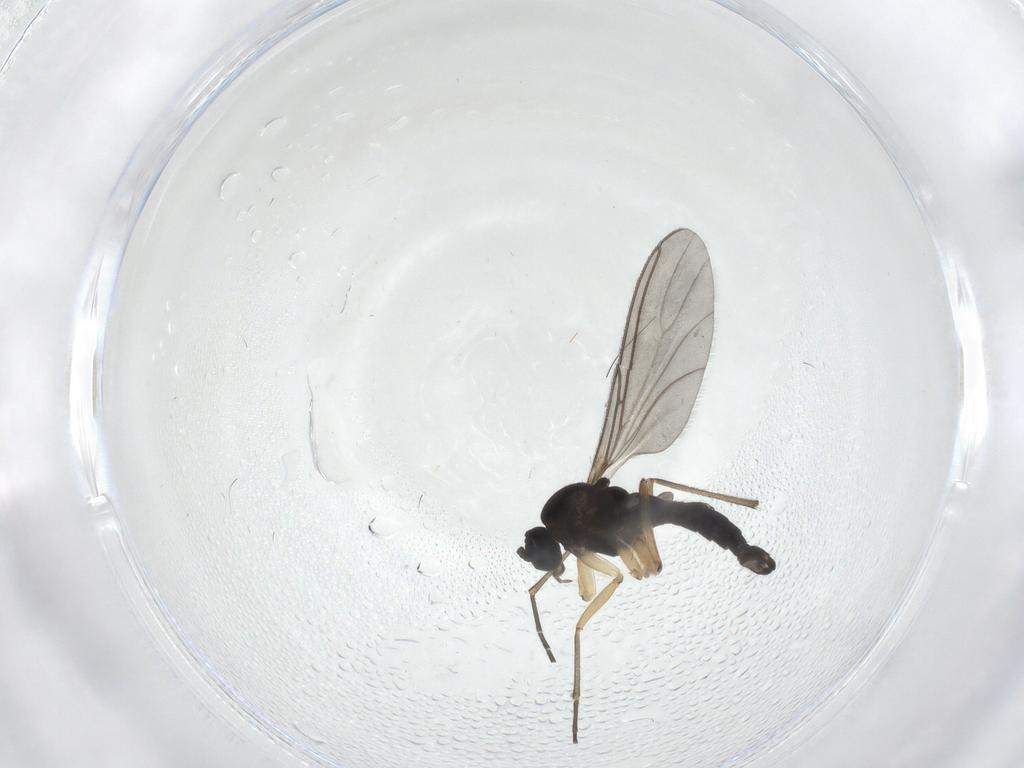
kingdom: Animalia
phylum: Arthropoda
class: Insecta
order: Diptera
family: Sciaridae
